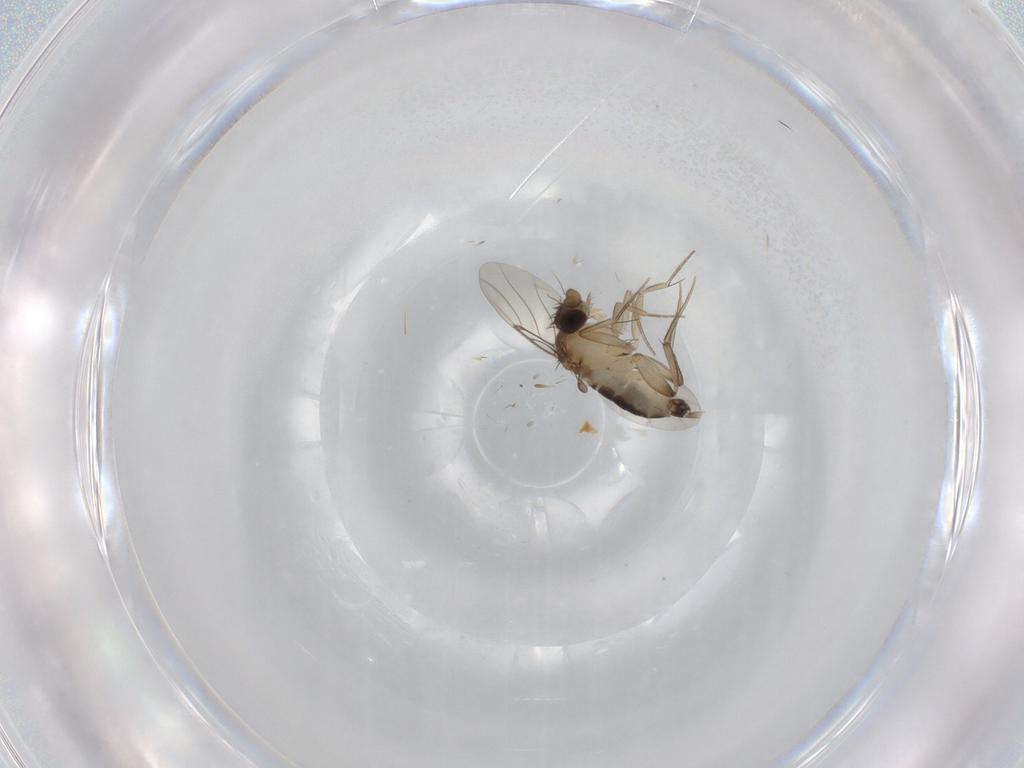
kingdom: Animalia
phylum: Arthropoda
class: Insecta
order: Diptera
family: Phoridae
